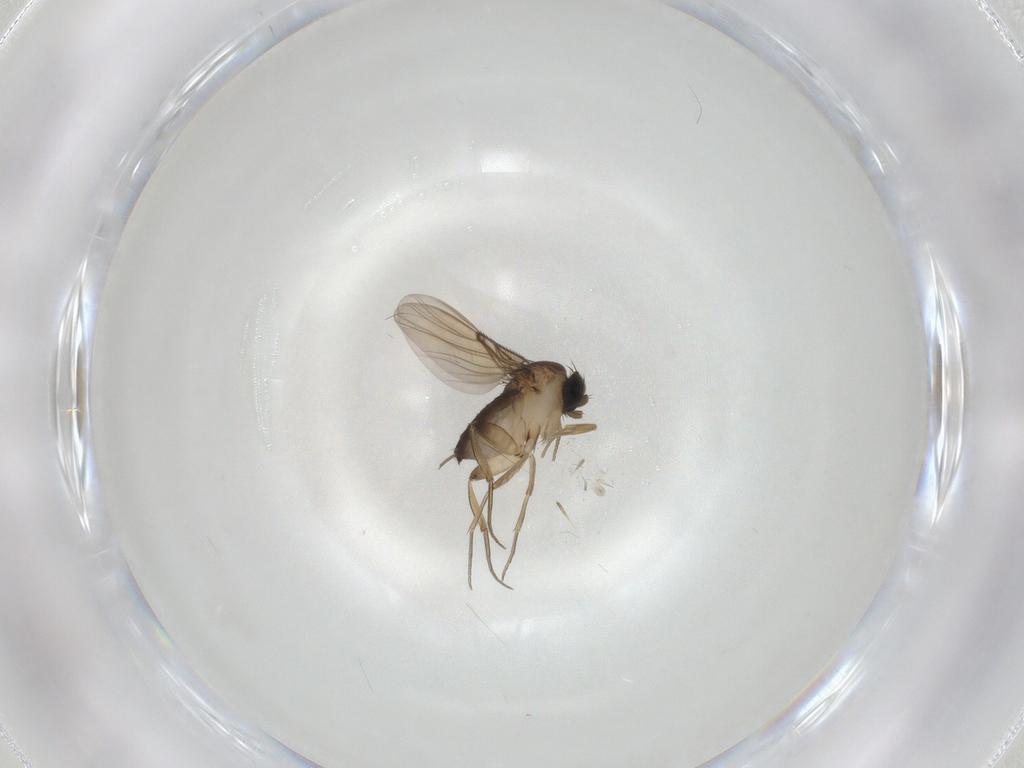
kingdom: Animalia
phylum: Arthropoda
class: Insecta
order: Diptera
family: Phoridae
